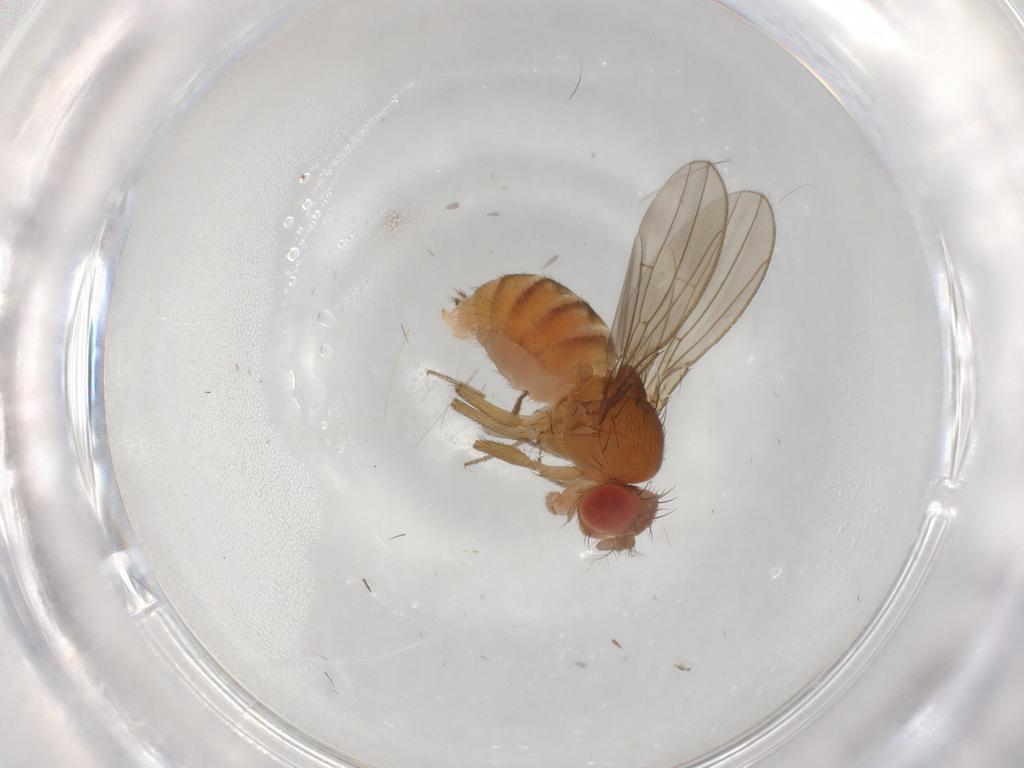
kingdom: Animalia
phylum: Arthropoda
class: Insecta
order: Diptera
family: Drosophilidae
